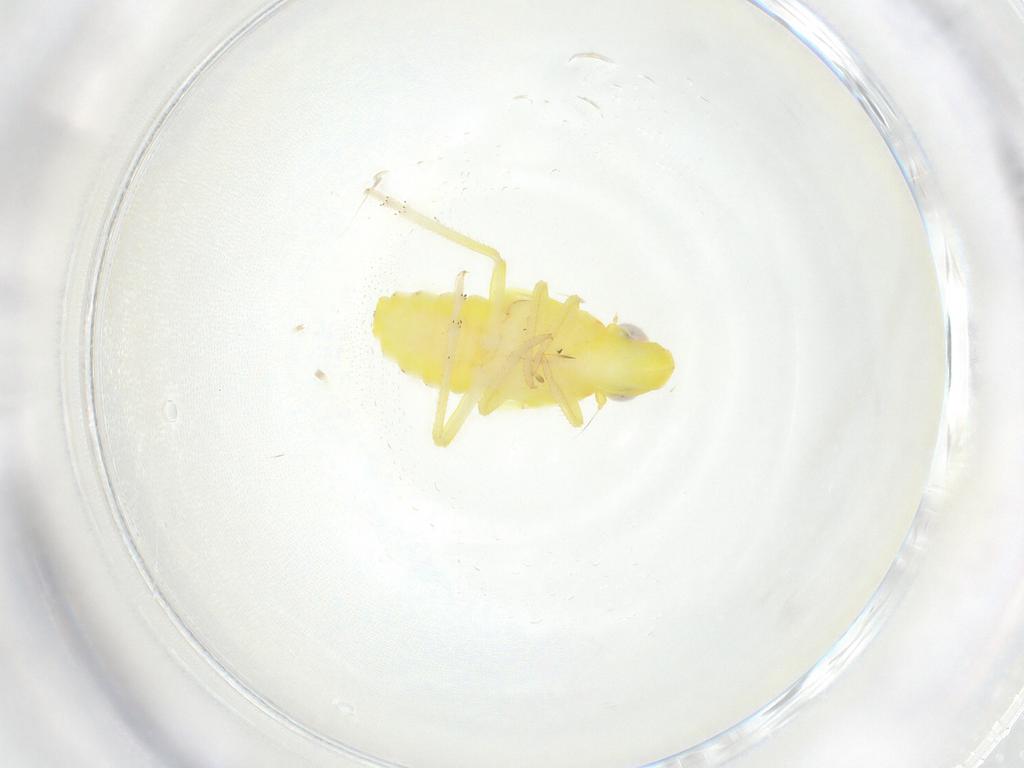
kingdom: Animalia
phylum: Arthropoda
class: Insecta
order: Hemiptera
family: Tropiduchidae
